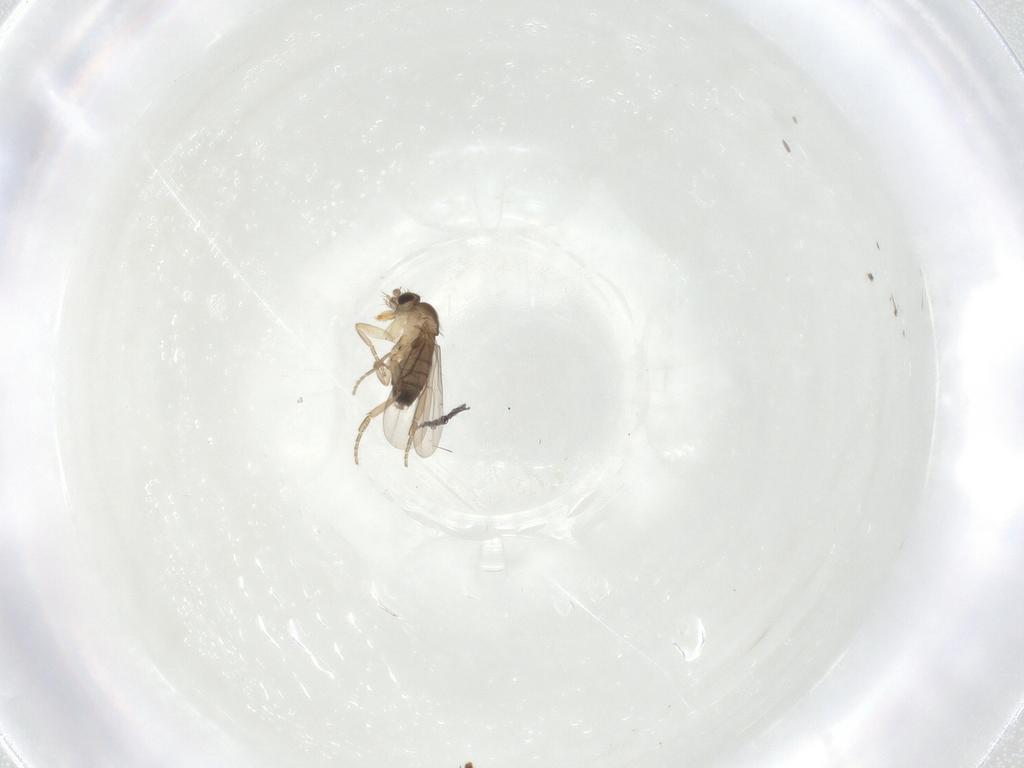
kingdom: Animalia
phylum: Arthropoda
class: Insecta
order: Diptera
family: Phoridae
